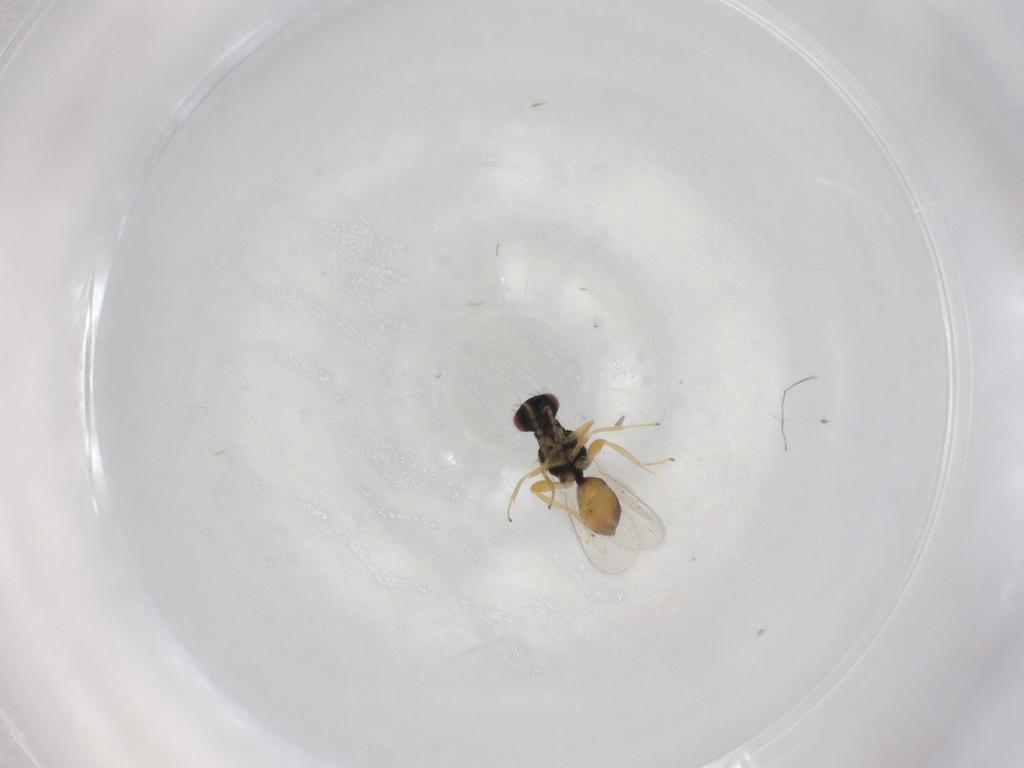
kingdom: Animalia
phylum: Arthropoda
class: Insecta
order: Hymenoptera
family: Eulophidae
